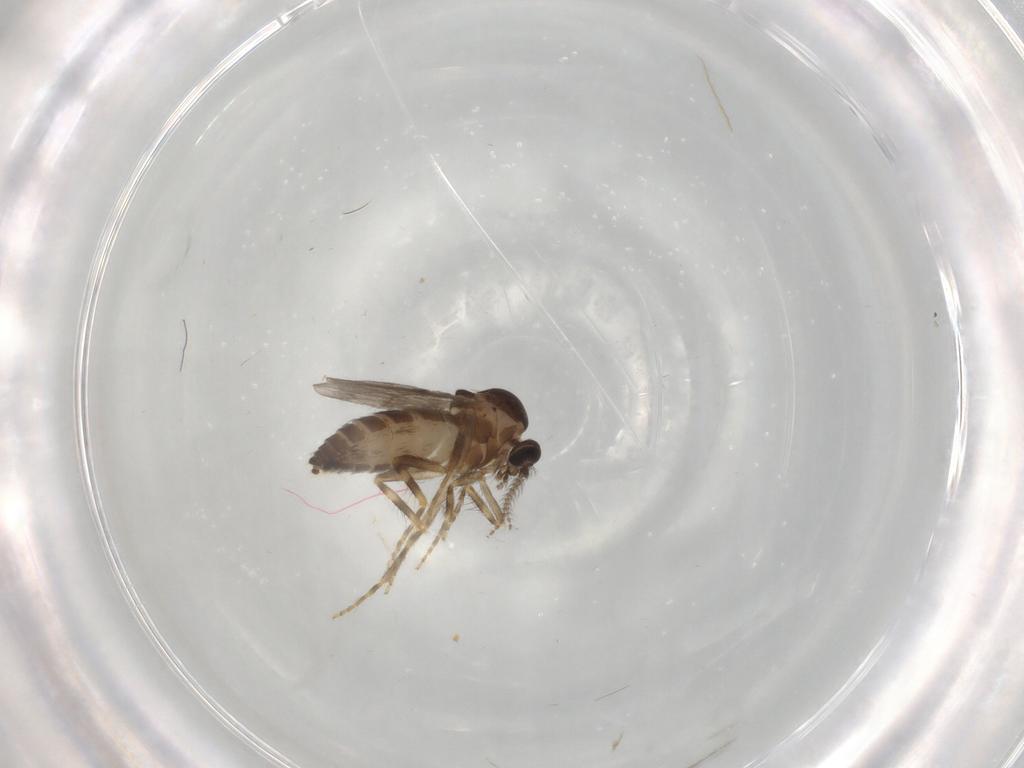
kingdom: Animalia
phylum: Arthropoda
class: Insecta
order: Diptera
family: Ceratopogonidae
